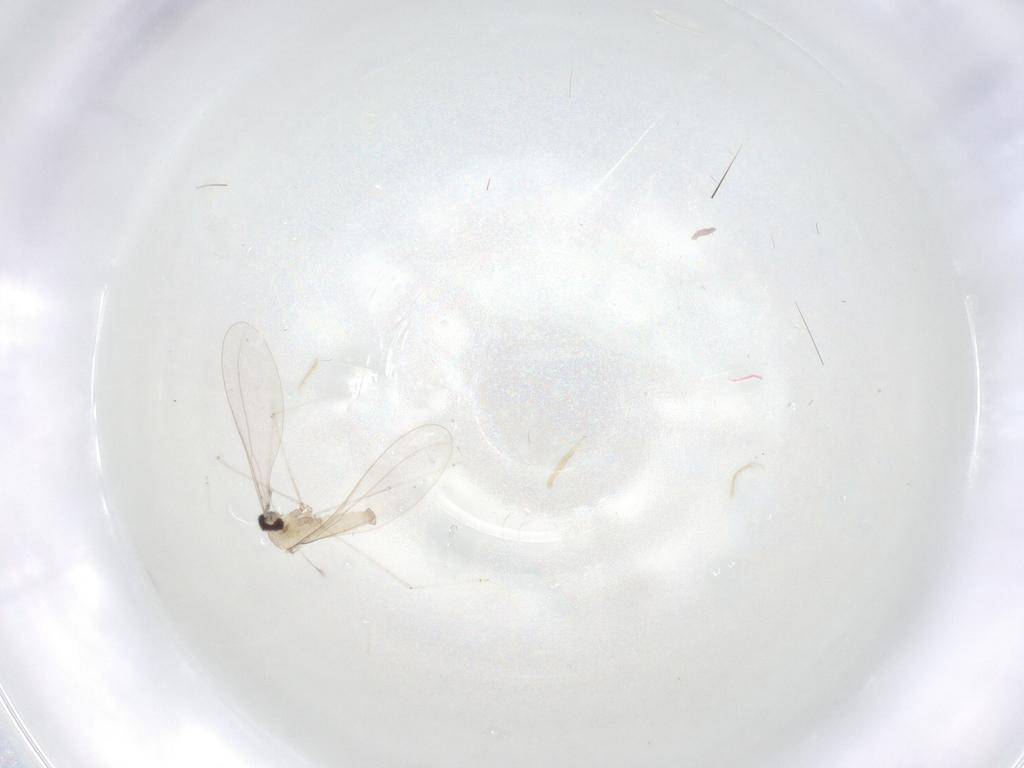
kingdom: Animalia
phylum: Arthropoda
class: Insecta
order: Diptera
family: Cecidomyiidae
